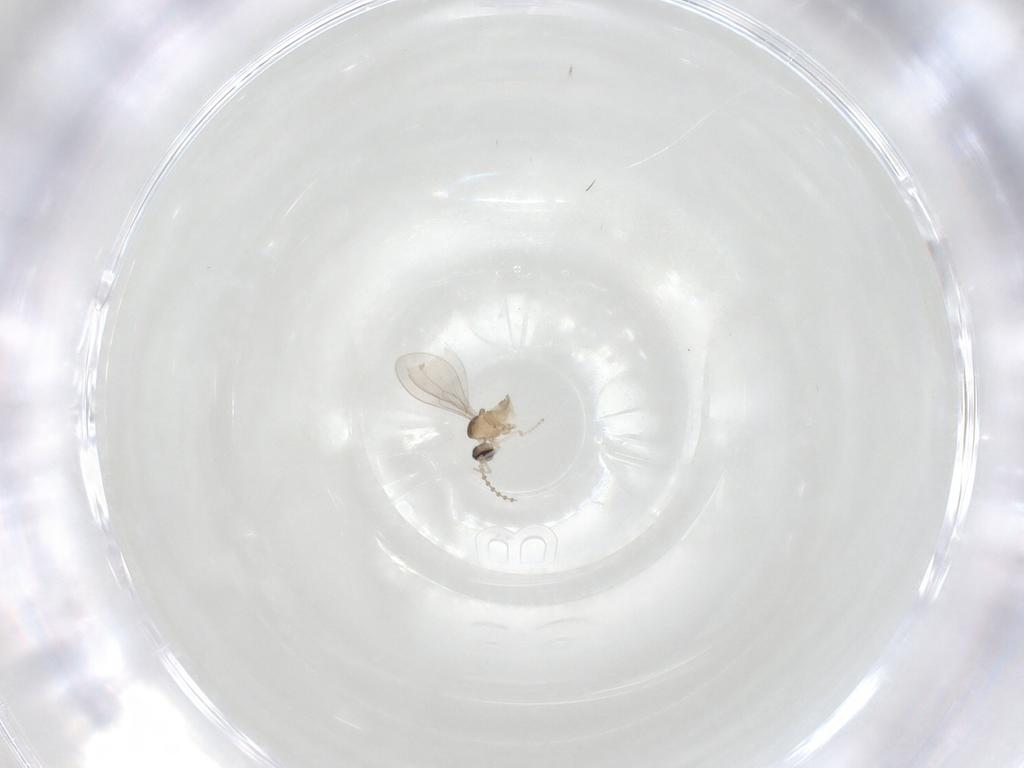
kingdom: Animalia
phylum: Arthropoda
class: Insecta
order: Diptera
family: Cecidomyiidae
